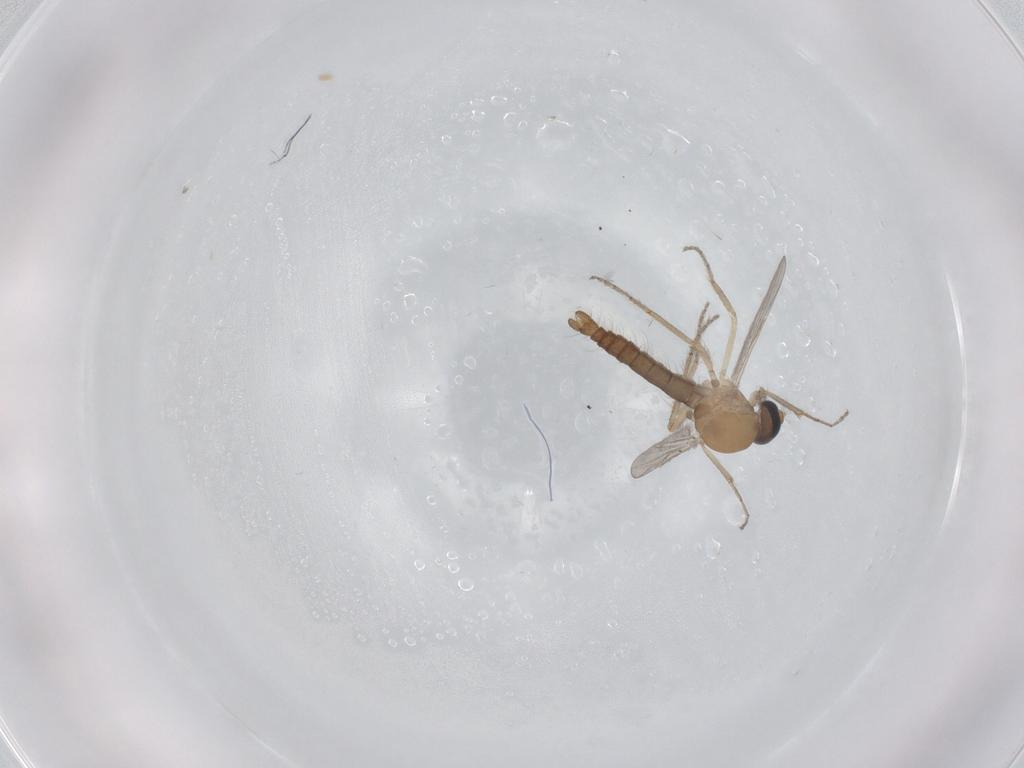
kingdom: Animalia
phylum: Arthropoda
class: Insecta
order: Diptera
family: Ceratopogonidae
